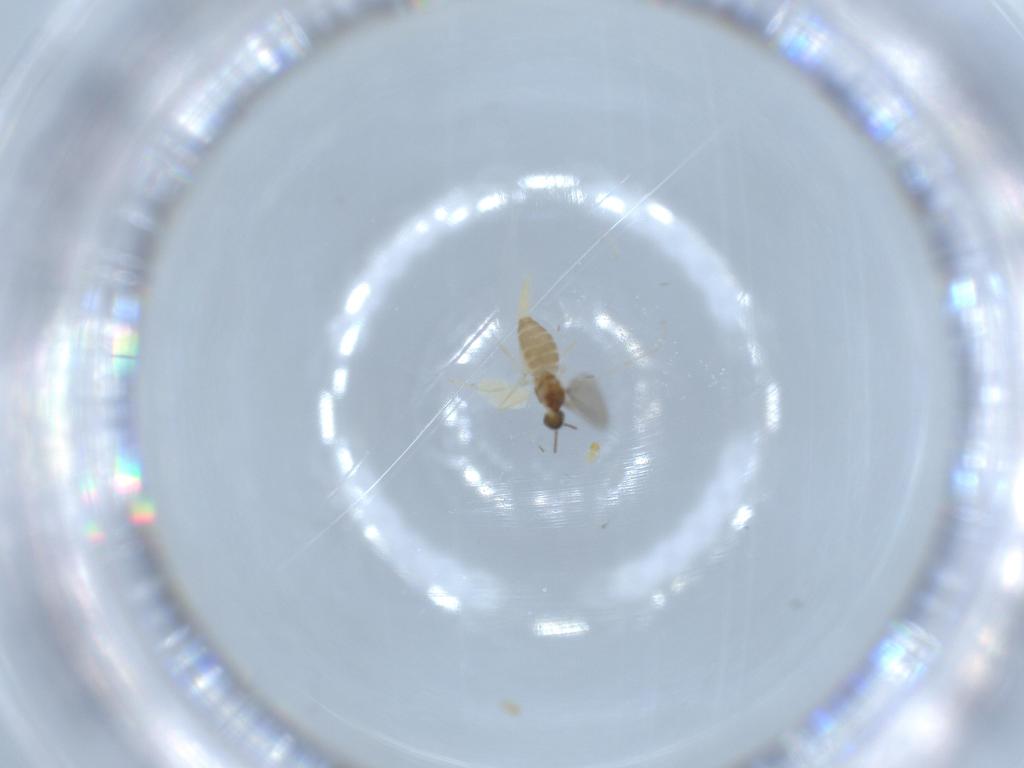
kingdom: Animalia
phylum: Arthropoda
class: Insecta
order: Diptera
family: Cecidomyiidae
